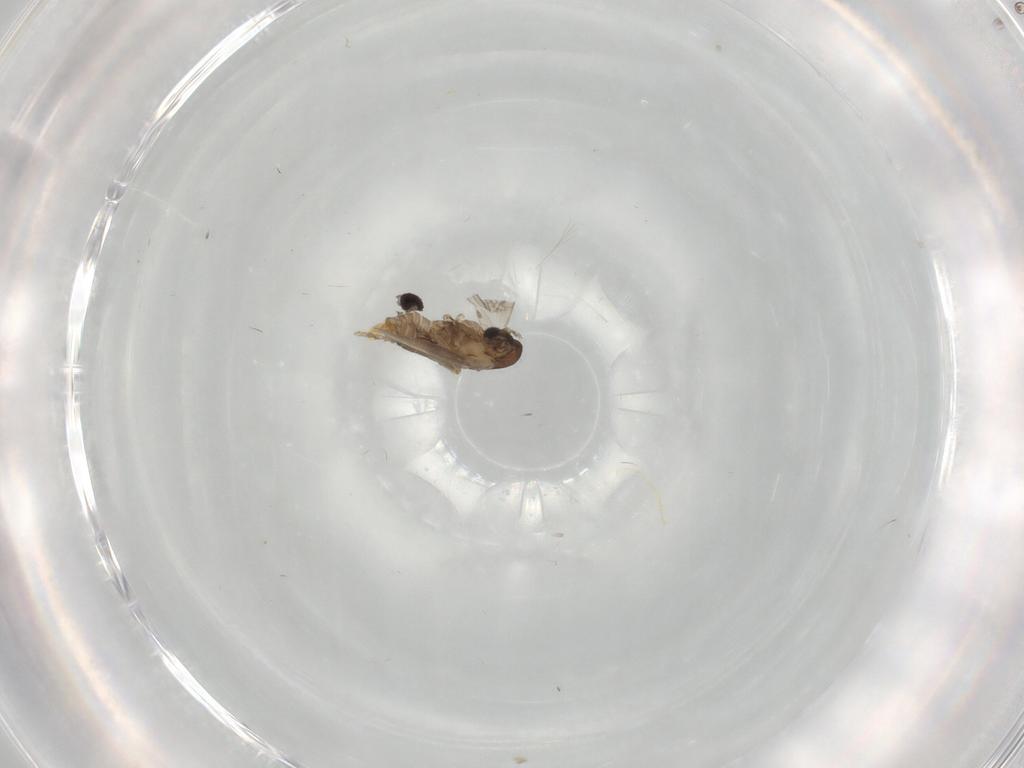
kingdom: Animalia
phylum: Arthropoda
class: Insecta
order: Diptera
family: Psychodidae
